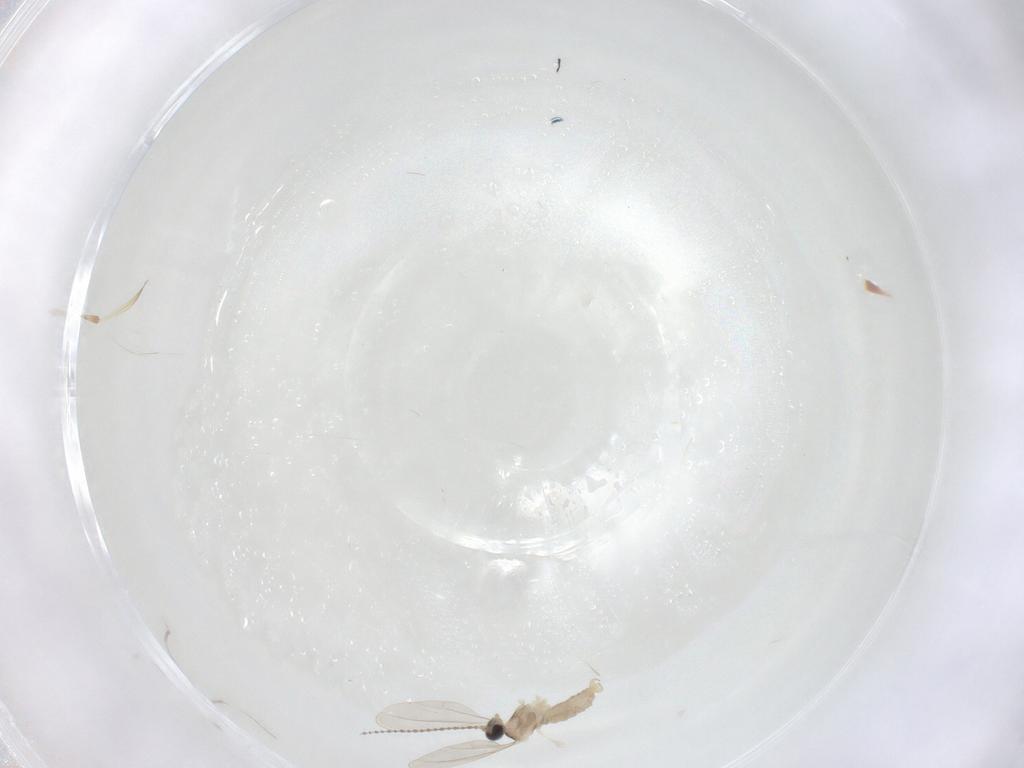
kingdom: Animalia
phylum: Arthropoda
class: Insecta
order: Diptera
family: Cecidomyiidae
